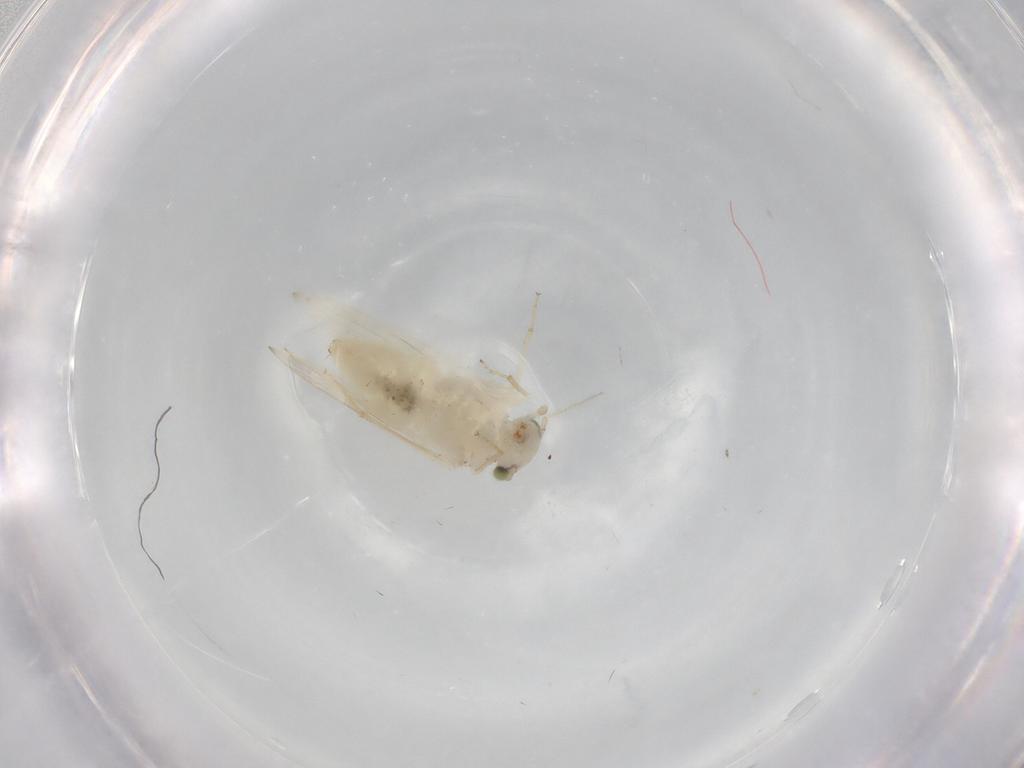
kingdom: Animalia
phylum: Arthropoda
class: Insecta
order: Psocodea
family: Lepidopsocidae
